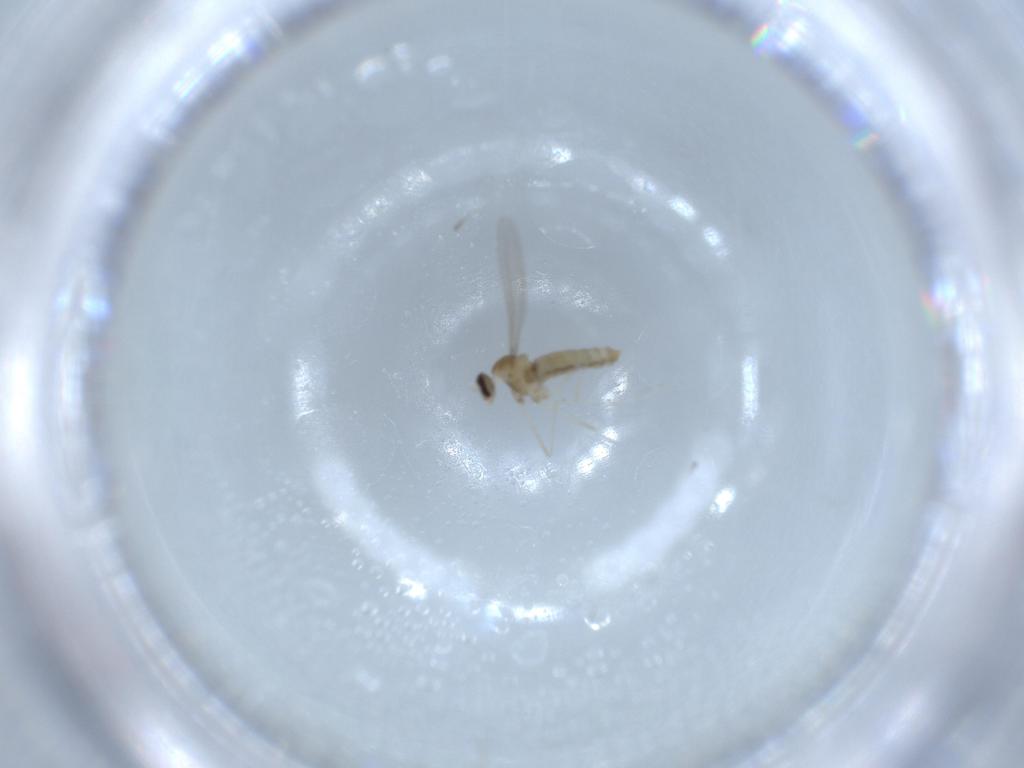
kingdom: Animalia
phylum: Arthropoda
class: Insecta
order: Diptera
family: Cecidomyiidae
